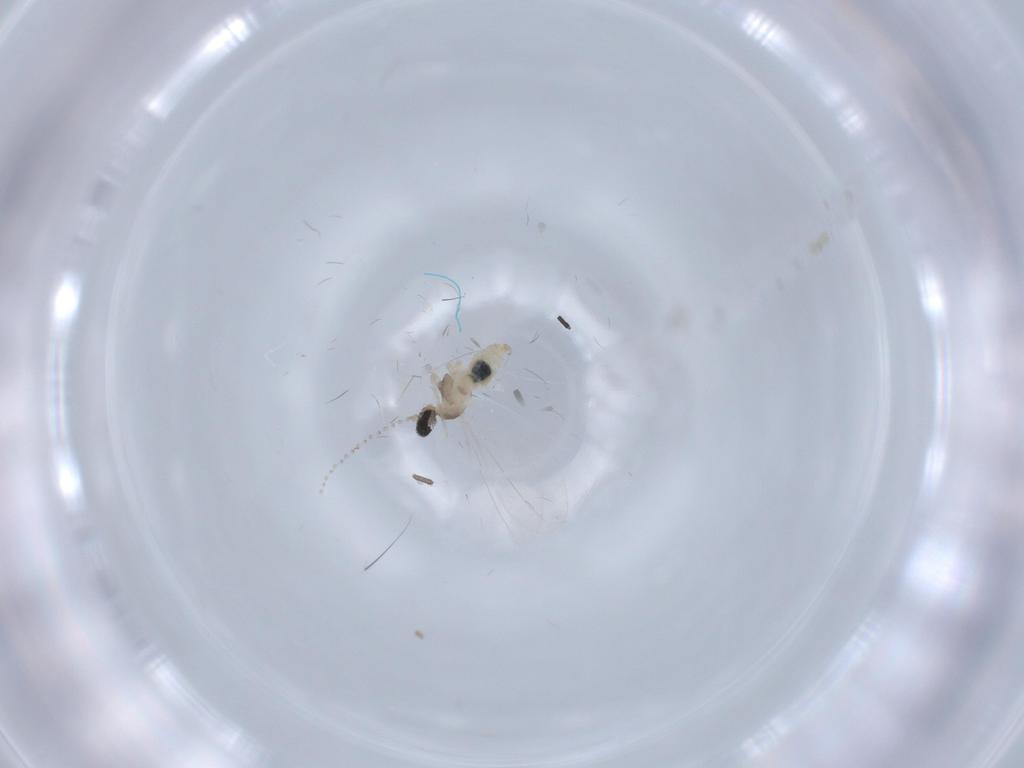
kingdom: Animalia
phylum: Arthropoda
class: Insecta
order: Diptera
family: Cecidomyiidae
